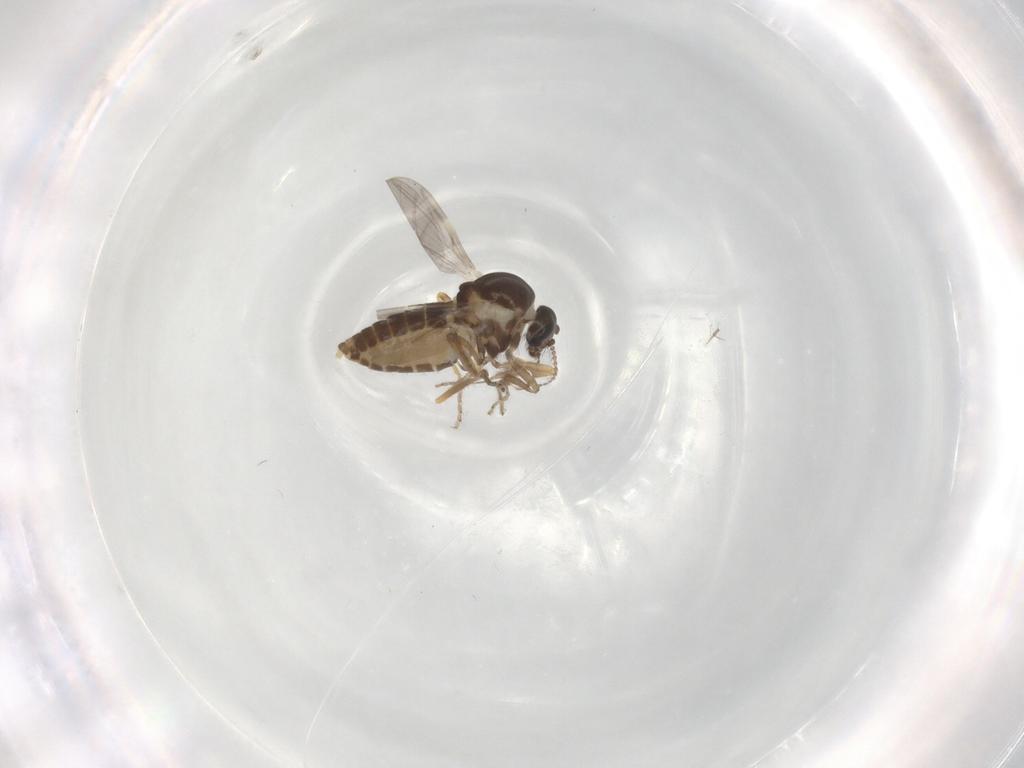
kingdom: Animalia
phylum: Arthropoda
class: Insecta
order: Diptera
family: Ceratopogonidae
